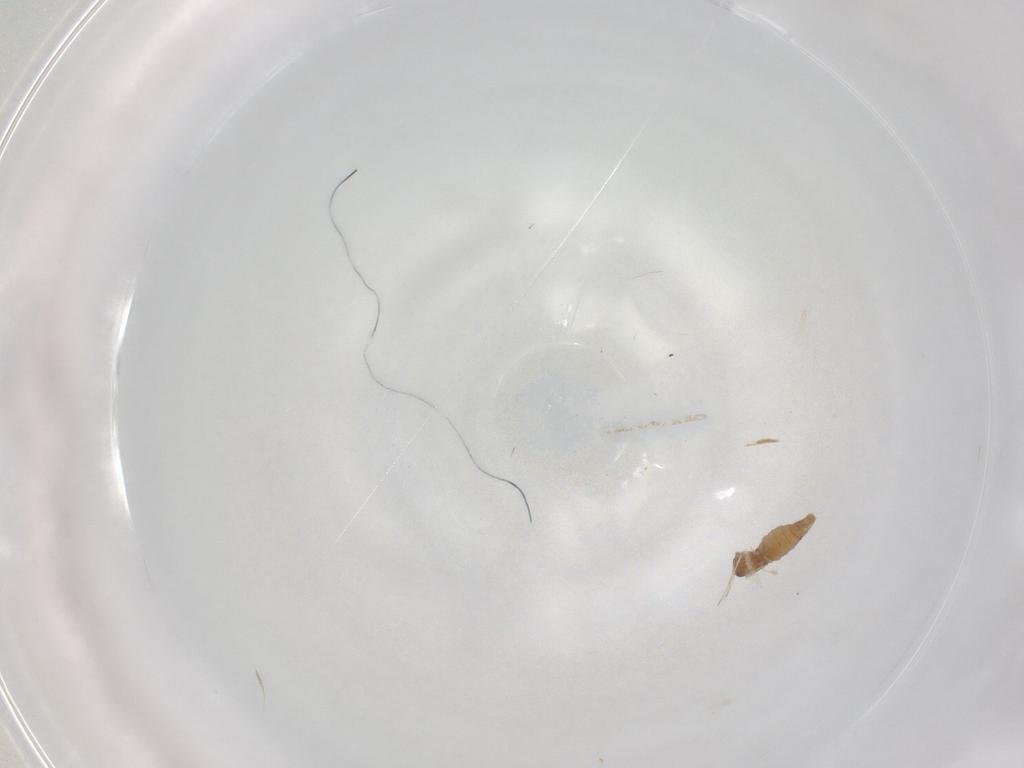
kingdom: Animalia
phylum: Arthropoda
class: Insecta
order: Diptera
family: Cecidomyiidae
